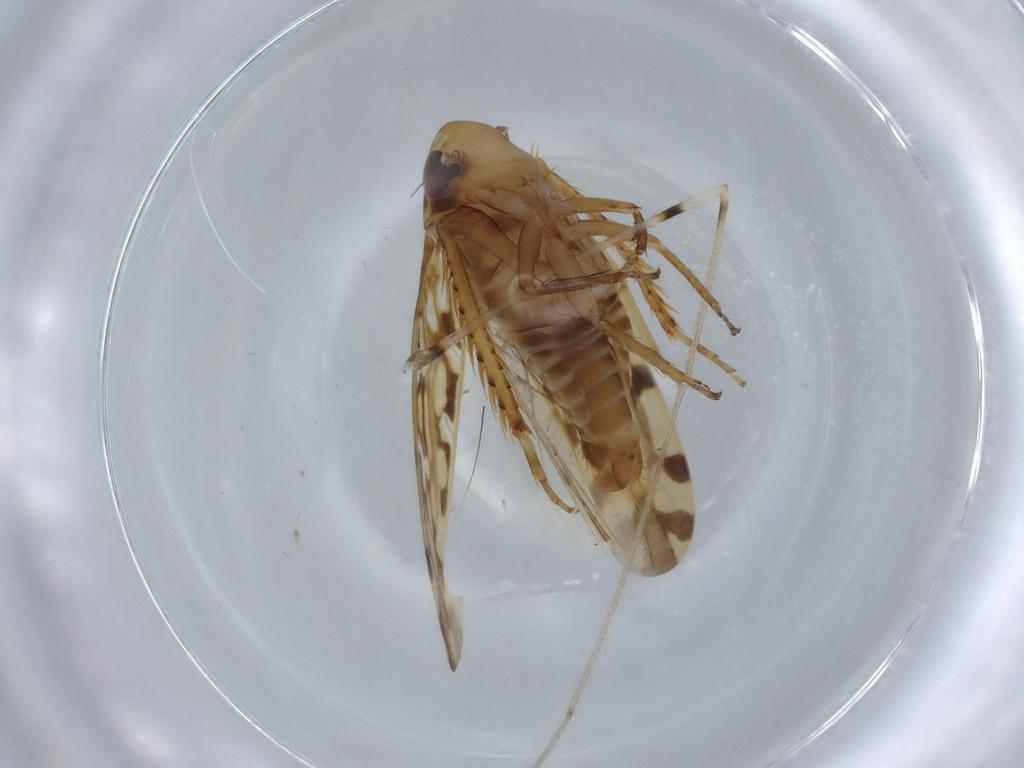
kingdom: Animalia
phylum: Arthropoda
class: Insecta
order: Hemiptera
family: Cicadellidae
